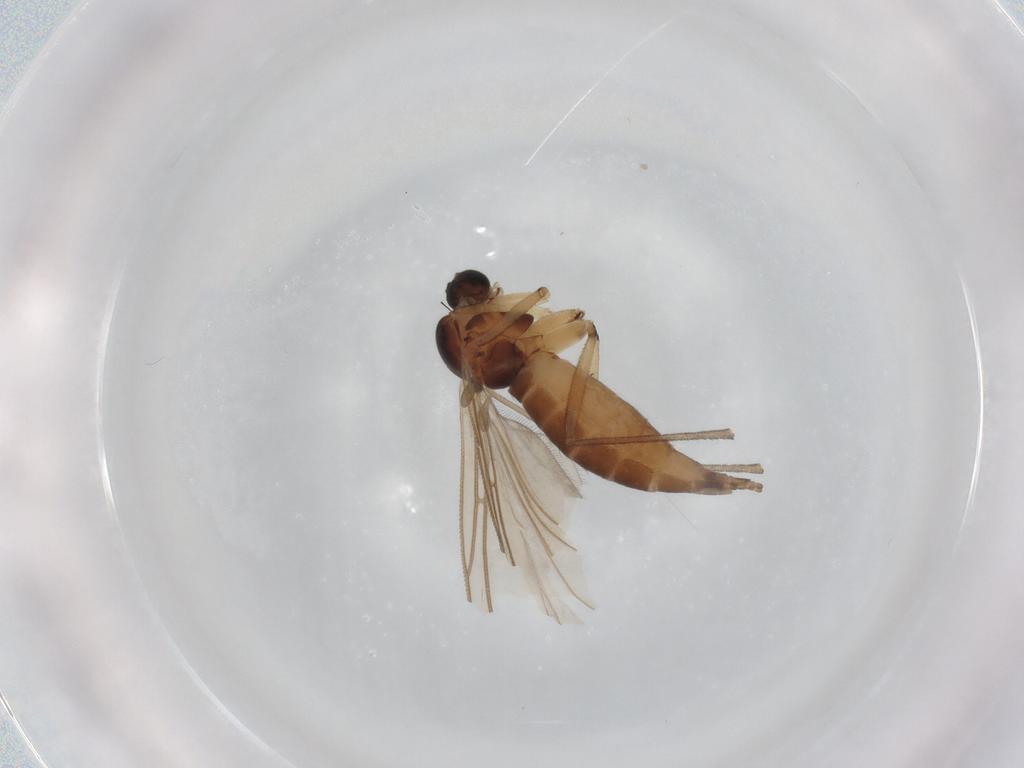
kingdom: Animalia
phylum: Arthropoda
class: Insecta
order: Diptera
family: Sciaridae
